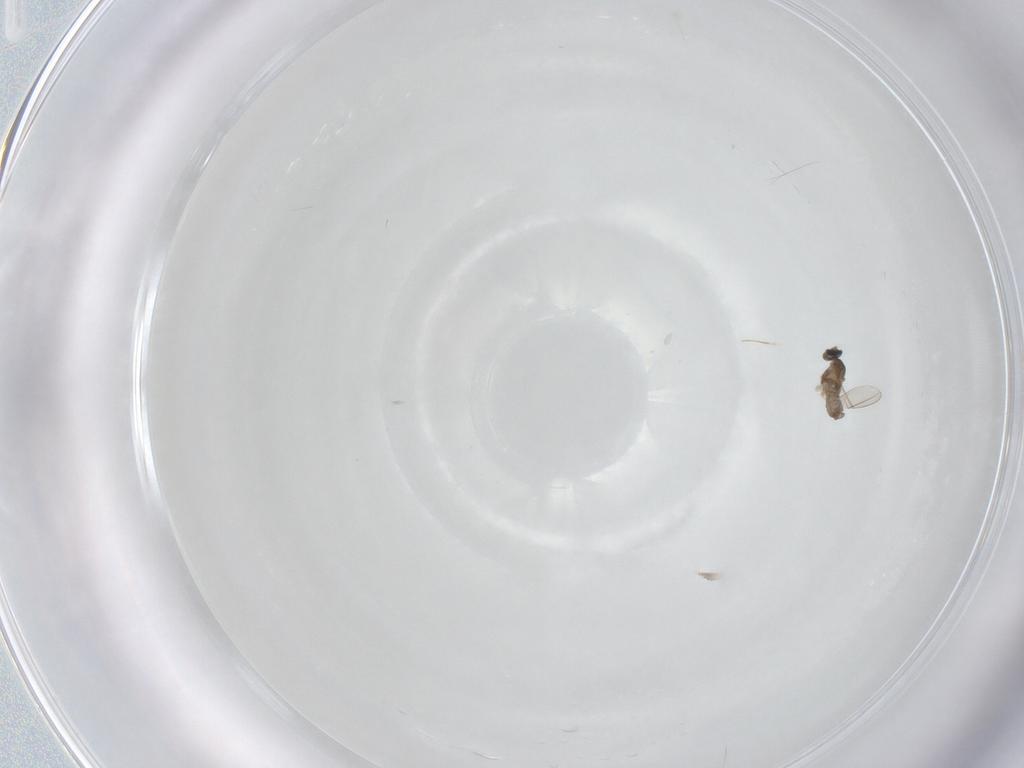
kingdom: Animalia
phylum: Arthropoda
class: Insecta
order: Diptera
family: Cecidomyiidae
